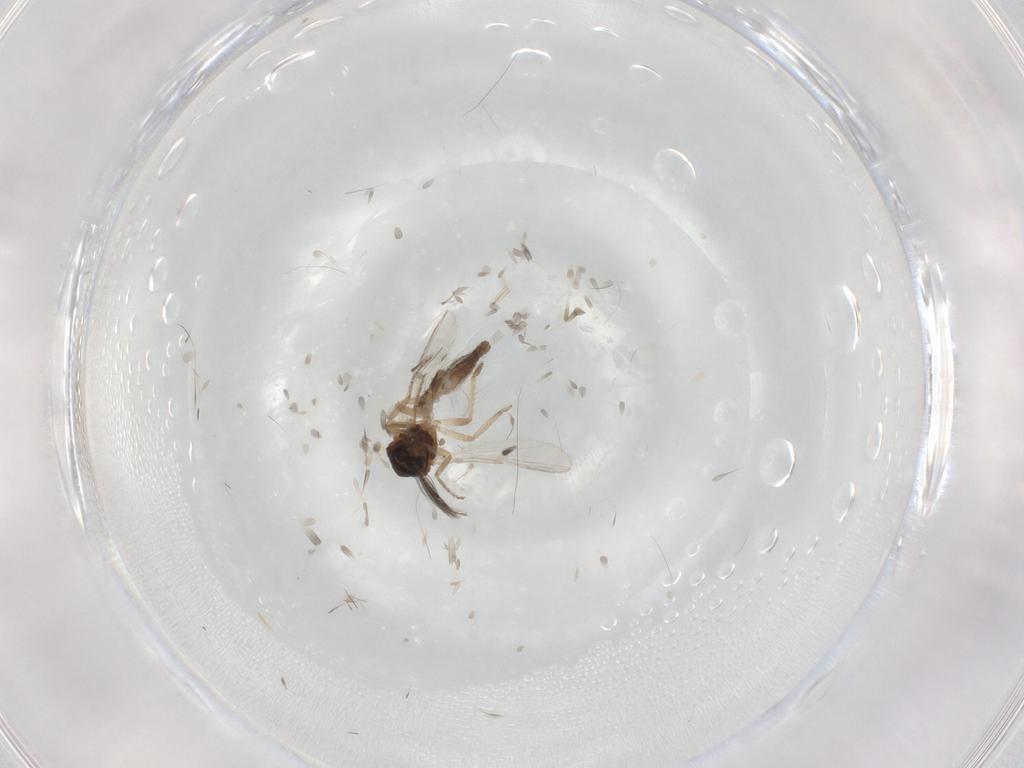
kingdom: Animalia
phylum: Arthropoda
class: Insecta
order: Diptera
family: Ceratopogonidae
